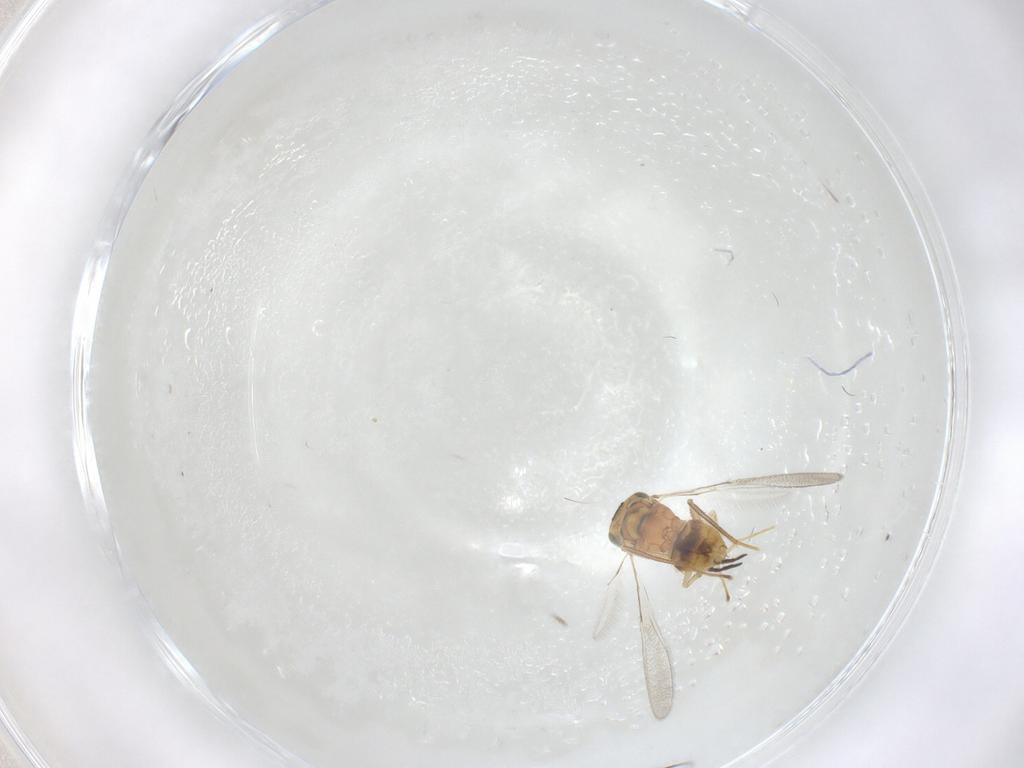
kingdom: Animalia
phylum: Arthropoda
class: Insecta
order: Hymenoptera
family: Mymaridae
